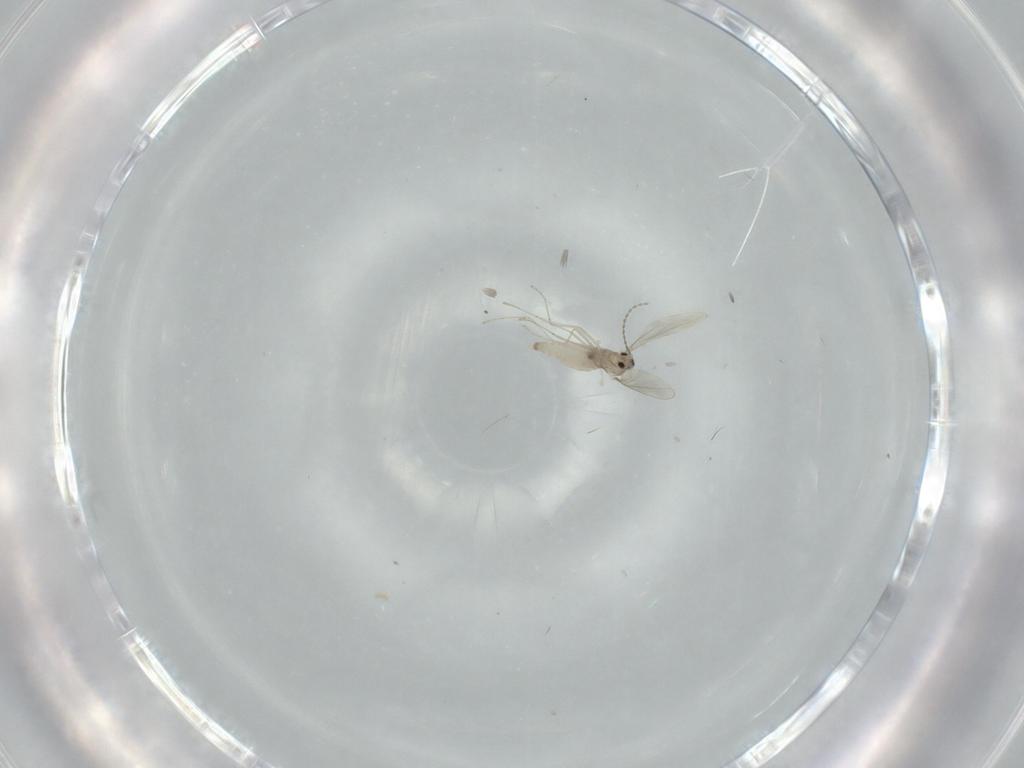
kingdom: Animalia
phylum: Arthropoda
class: Insecta
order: Diptera
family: Cecidomyiidae
